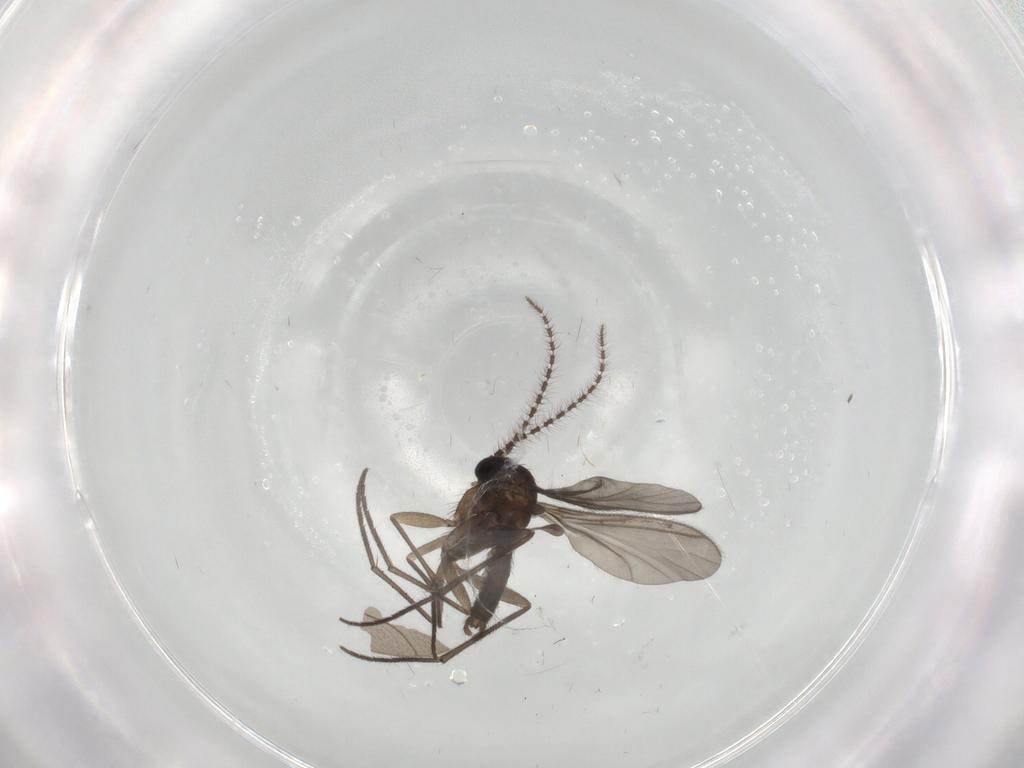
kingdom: Animalia
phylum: Arthropoda
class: Insecta
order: Diptera
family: Sciaridae
